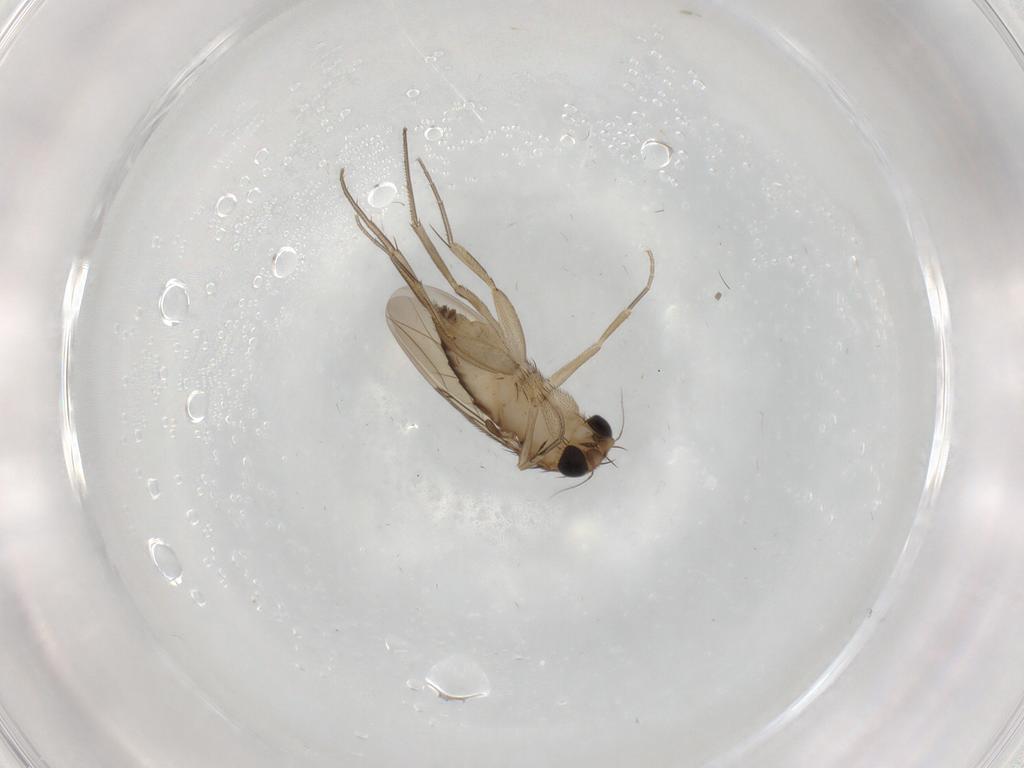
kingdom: Animalia
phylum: Arthropoda
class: Insecta
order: Diptera
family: Phoridae
